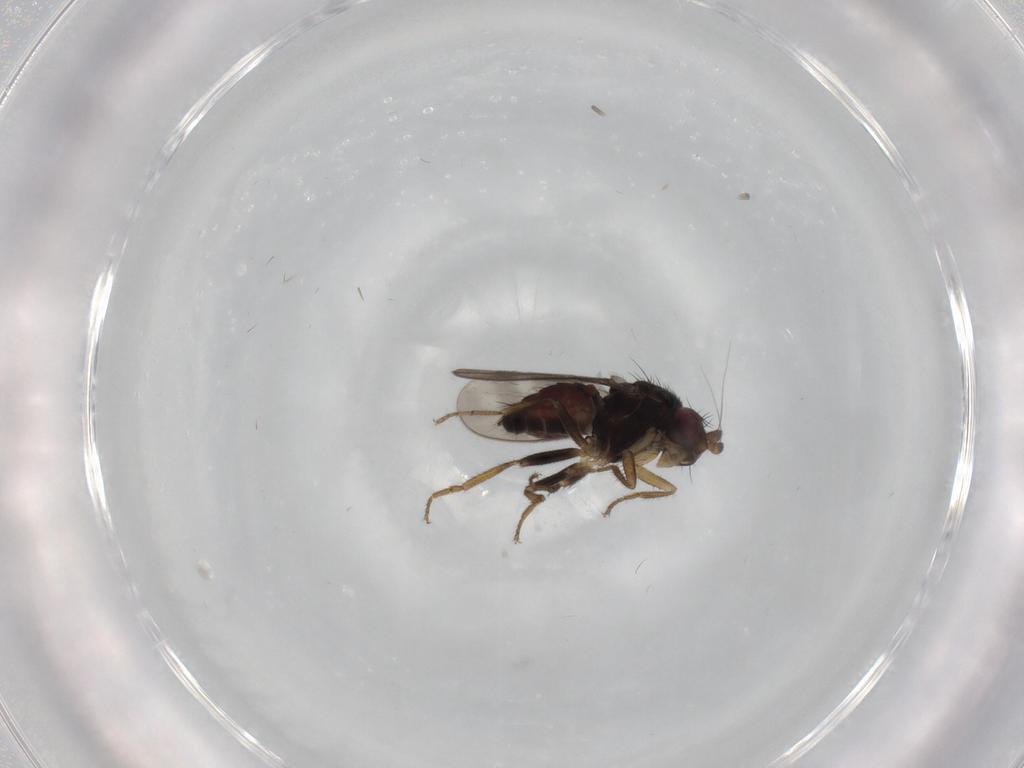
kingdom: Animalia
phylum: Arthropoda
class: Insecta
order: Diptera
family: Sphaeroceridae
